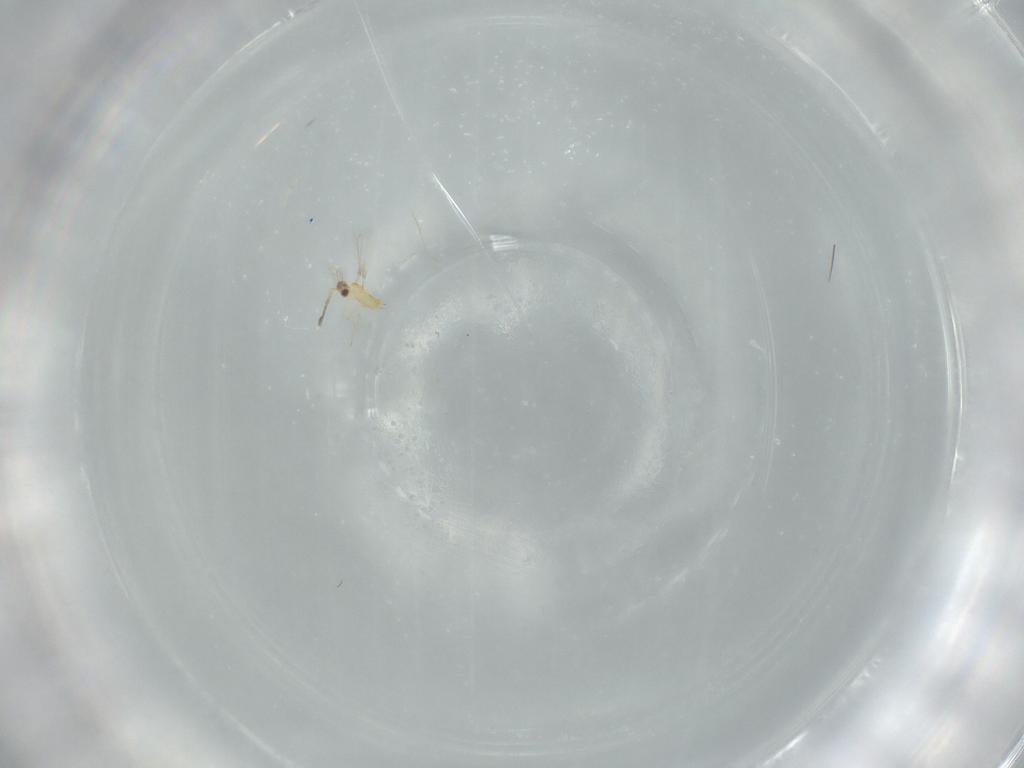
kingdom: Animalia
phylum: Arthropoda
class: Insecta
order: Hymenoptera
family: Mymaridae
